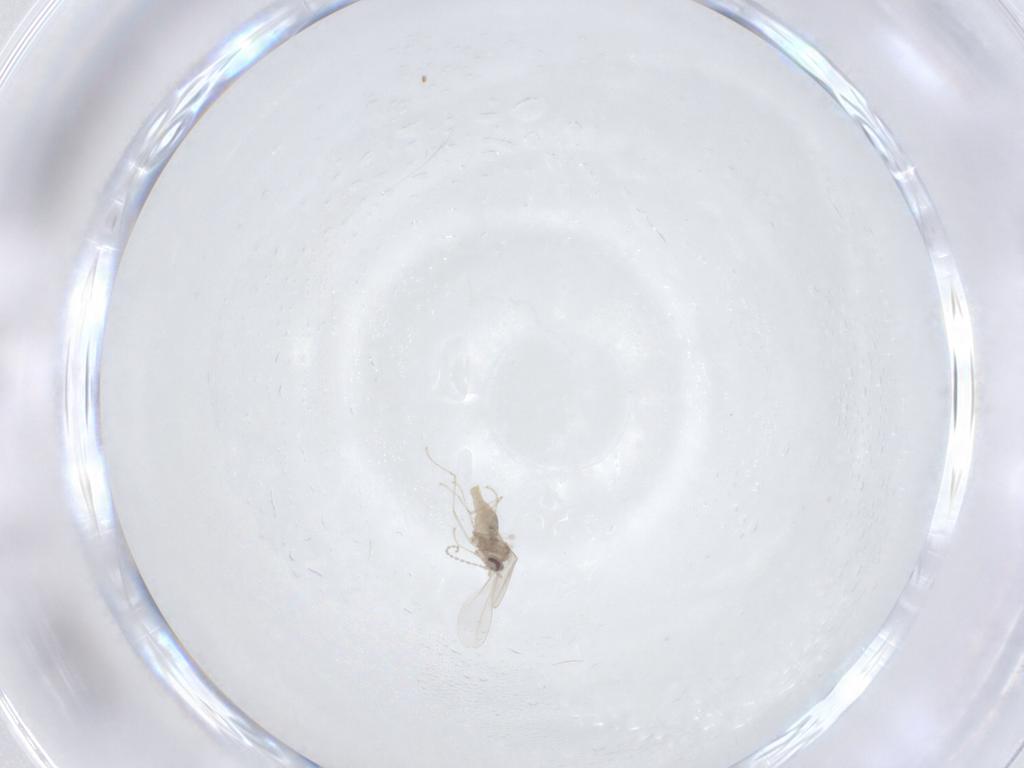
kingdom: Animalia
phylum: Arthropoda
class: Insecta
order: Diptera
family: Cecidomyiidae
